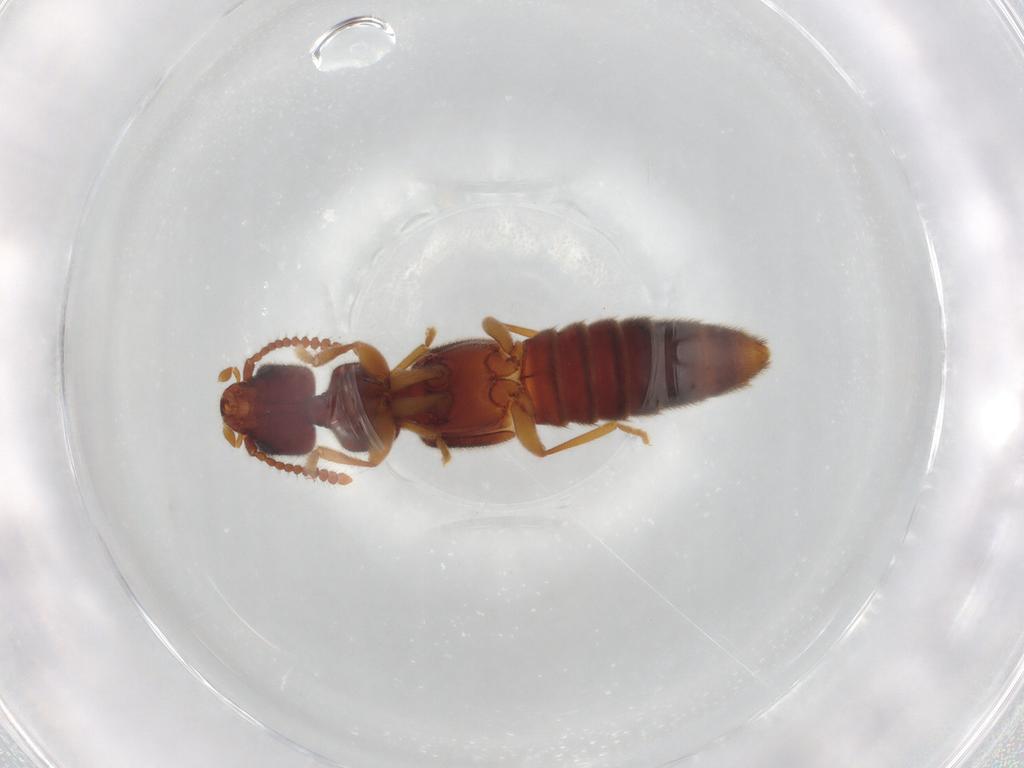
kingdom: Animalia
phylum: Arthropoda
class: Insecta
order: Coleoptera
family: Staphylinidae
